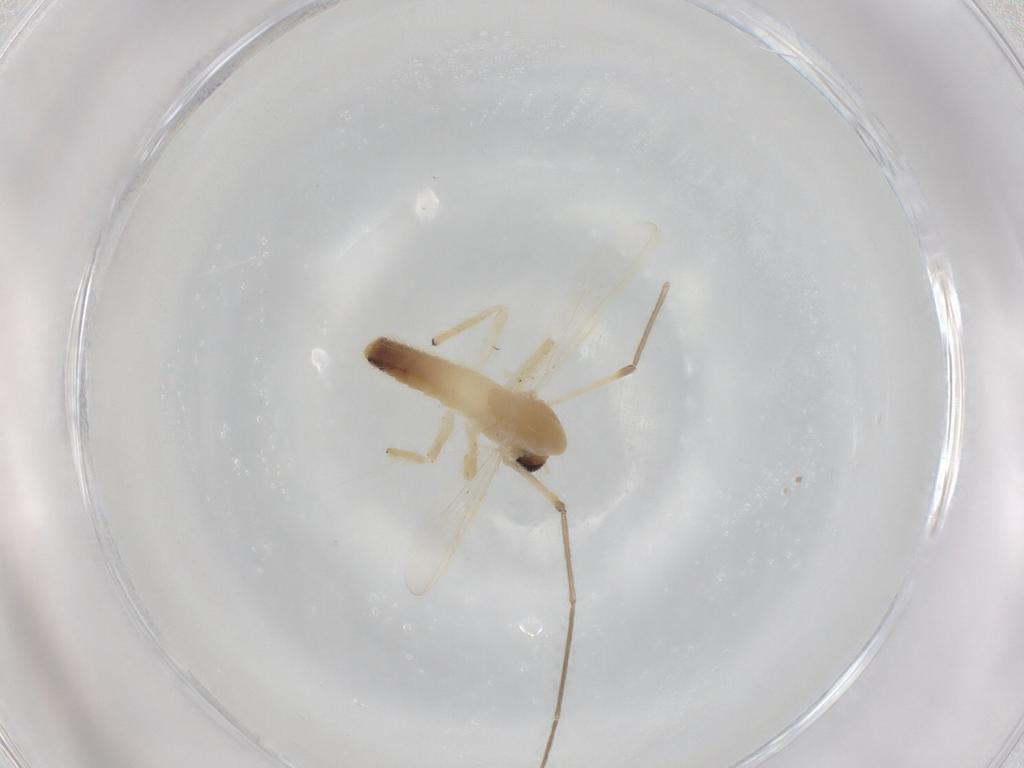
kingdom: Animalia
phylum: Arthropoda
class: Insecta
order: Diptera
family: Chironomidae
